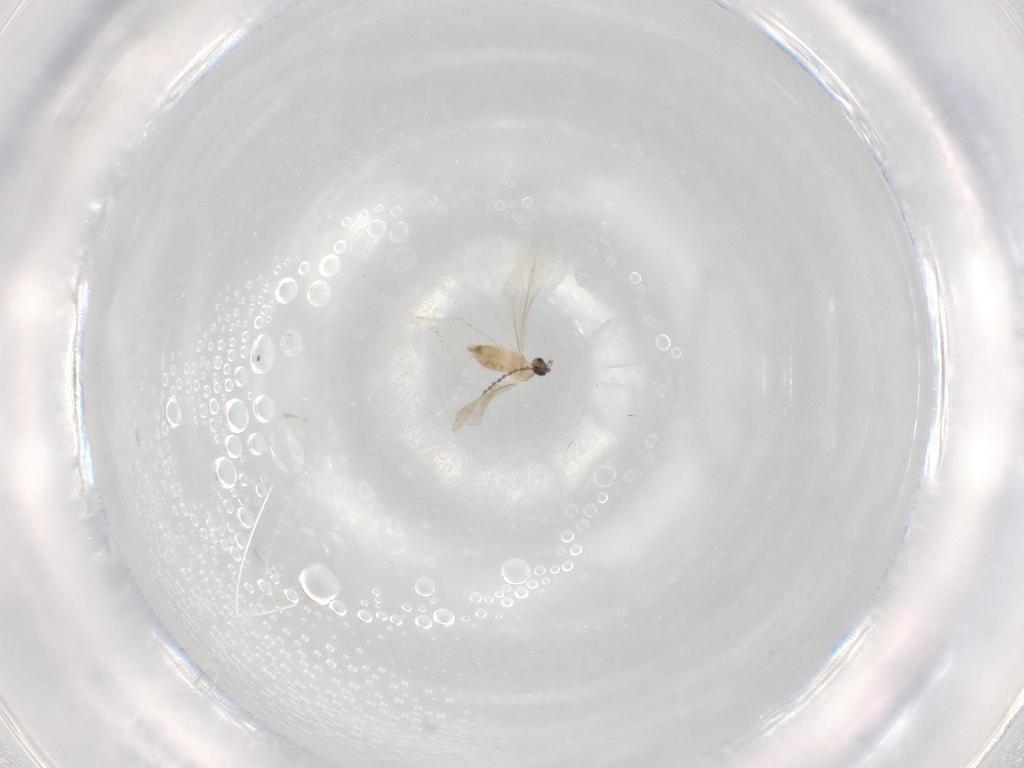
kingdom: Animalia
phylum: Arthropoda
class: Insecta
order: Diptera
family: Cecidomyiidae
